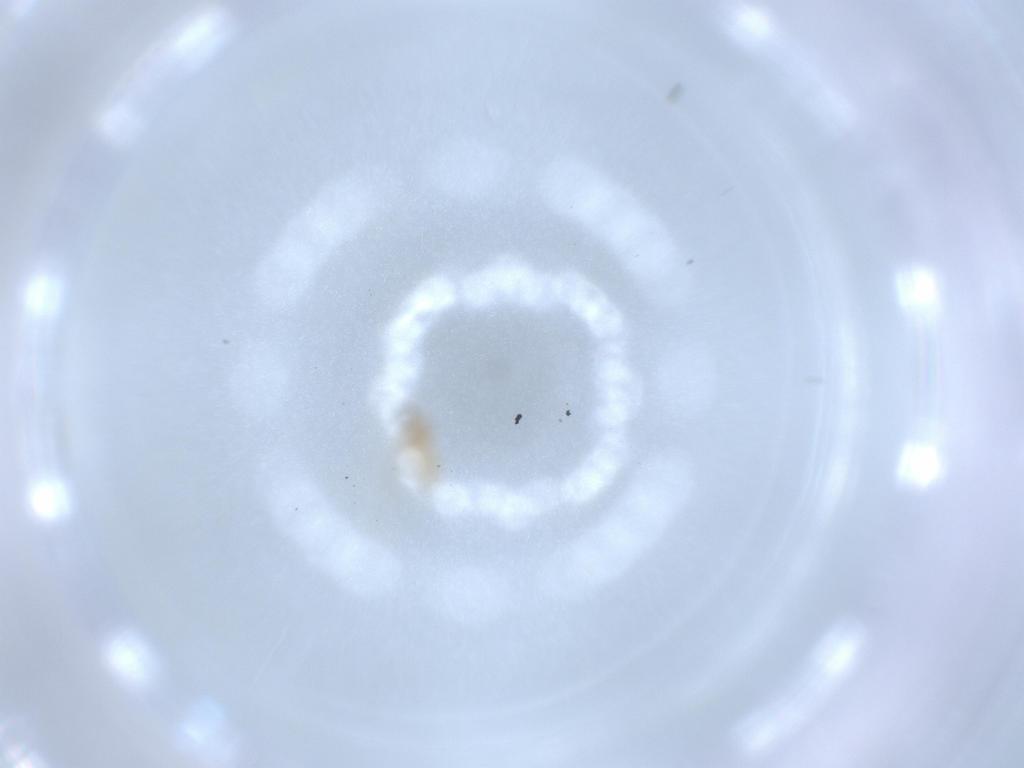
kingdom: Animalia
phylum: Arthropoda
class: Insecta
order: Diptera
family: Cecidomyiidae
